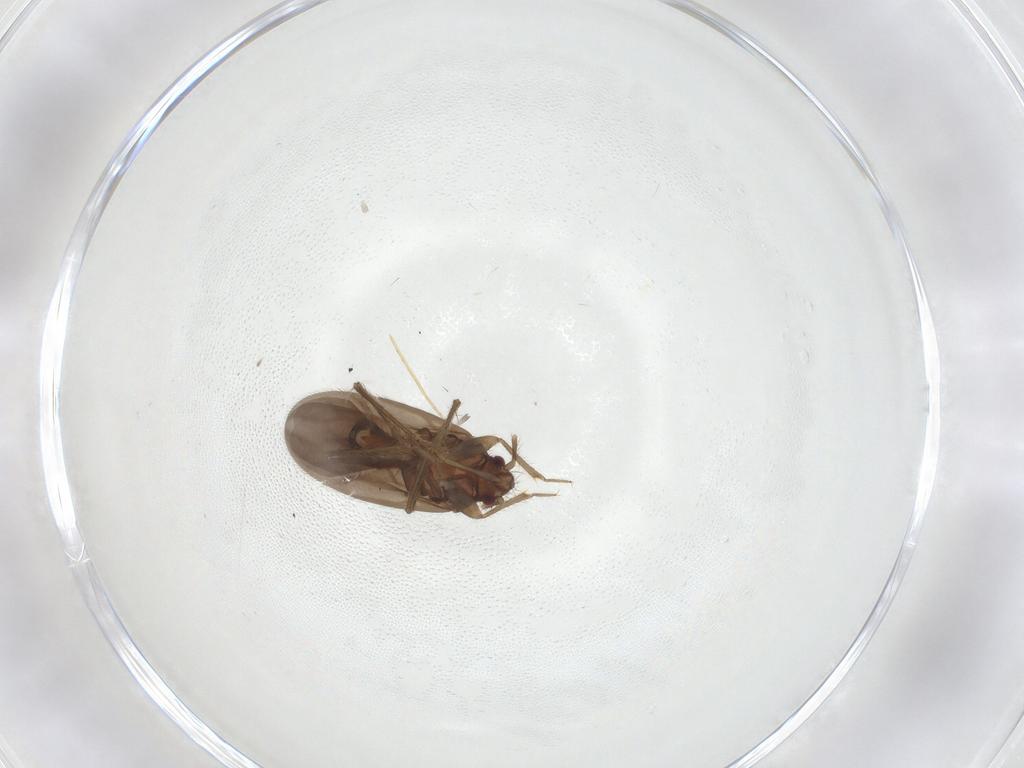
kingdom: Animalia
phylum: Arthropoda
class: Insecta
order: Hemiptera
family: Ceratocombidae
